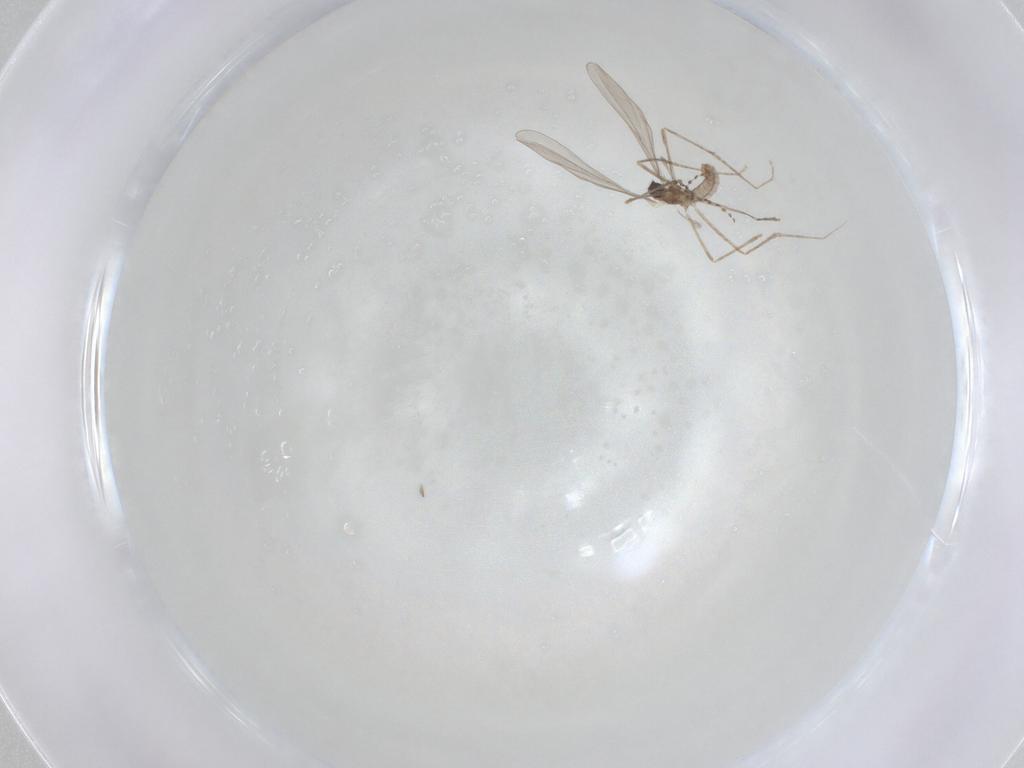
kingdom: Animalia
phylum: Arthropoda
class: Insecta
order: Diptera
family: Cecidomyiidae
